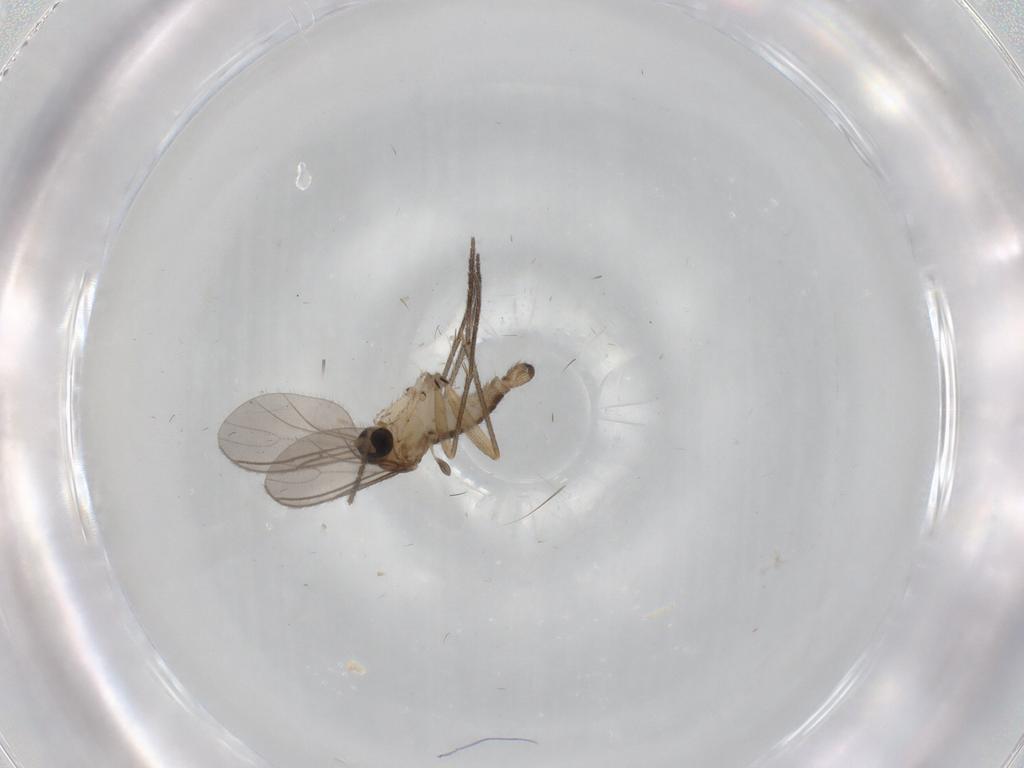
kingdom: Animalia
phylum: Arthropoda
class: Insecta
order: Diptera
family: Sciaridae
